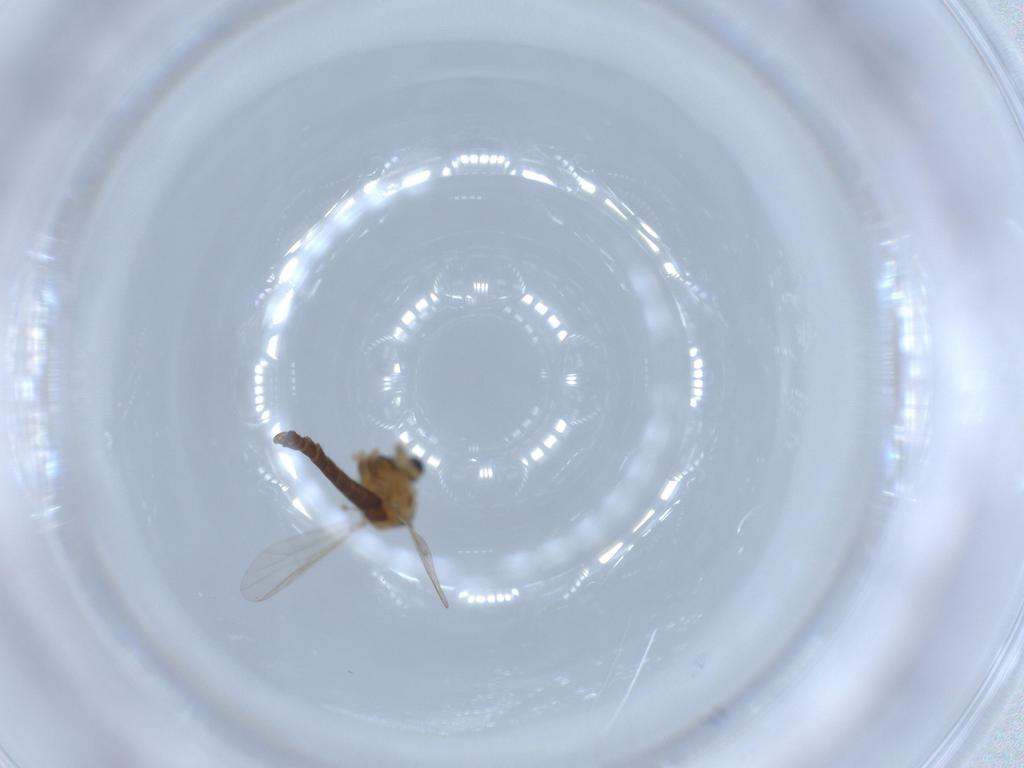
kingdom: Animalia
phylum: Arthropoda
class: Insecta
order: Diptera
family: Chironomidae
